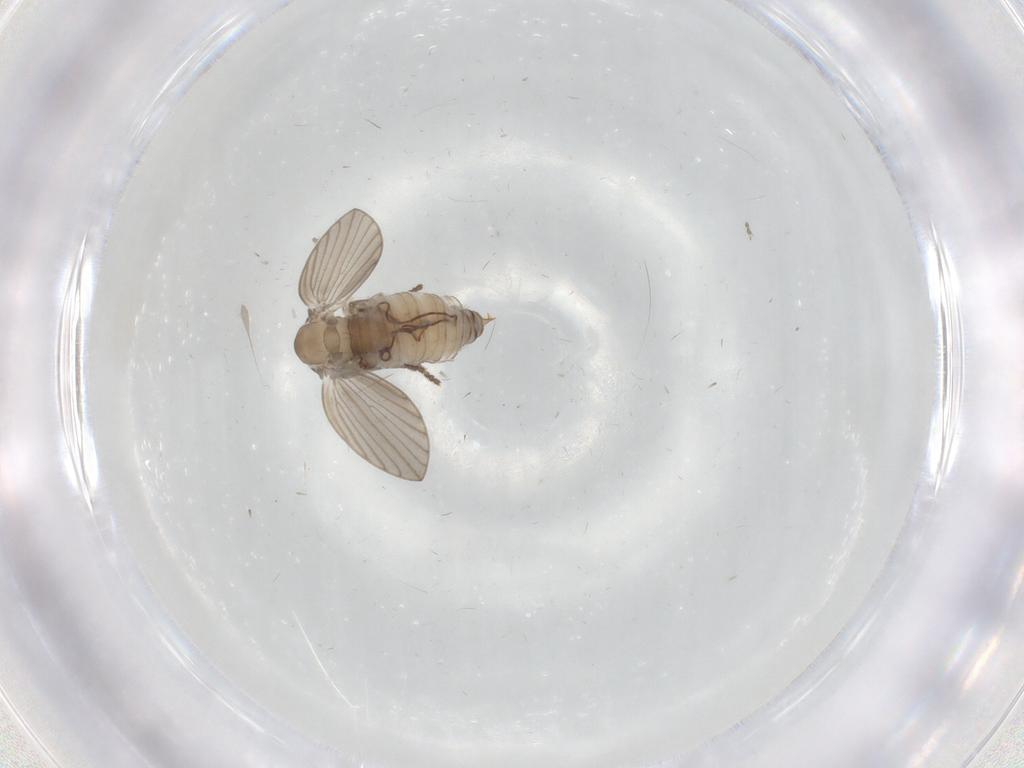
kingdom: Animalia
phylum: Arthropoda
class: Insecta
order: Diptera
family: Psychodidae
